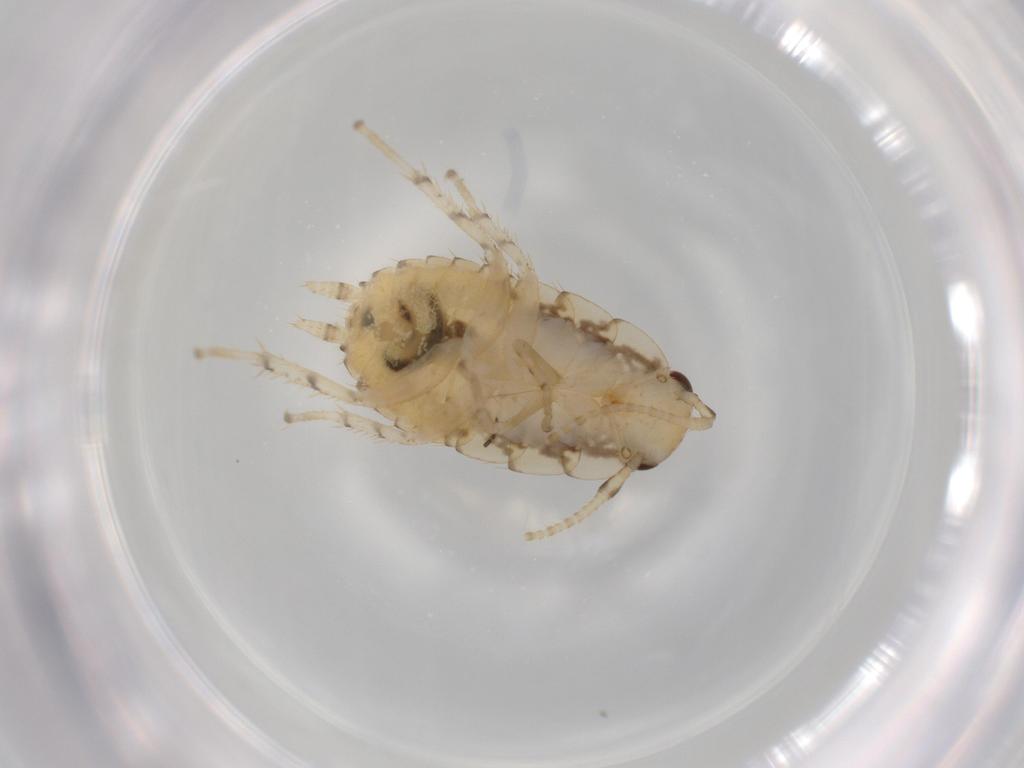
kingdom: Animalia
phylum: Arthropoda
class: Insecta
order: Blattodea
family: Ectobiidae
